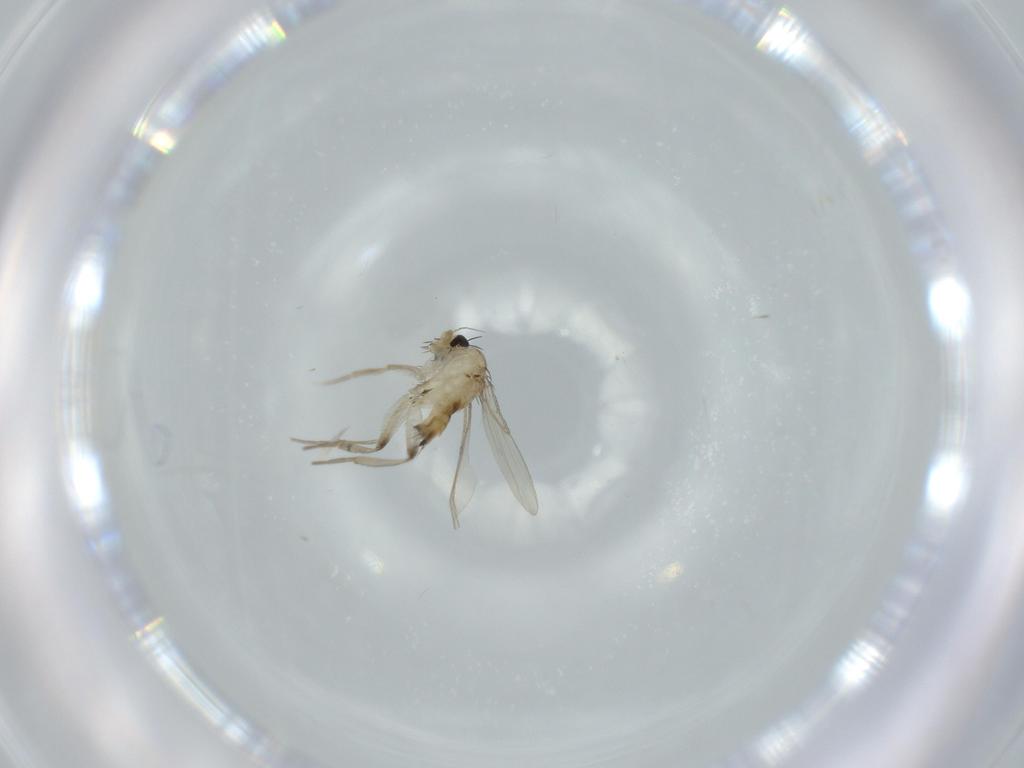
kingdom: Animalia
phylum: Arthropoda
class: Insecta
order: Diptera
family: Phoridae
